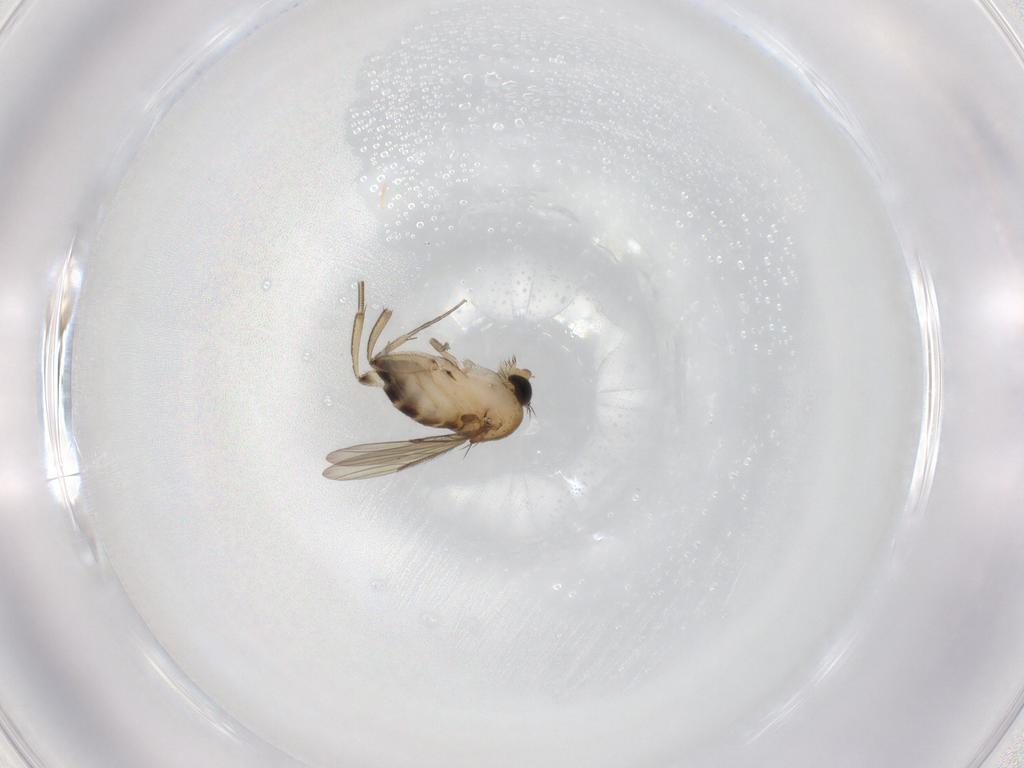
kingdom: Animalia
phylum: Arthropoda
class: Insecta
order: Diptera
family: Phoridae
